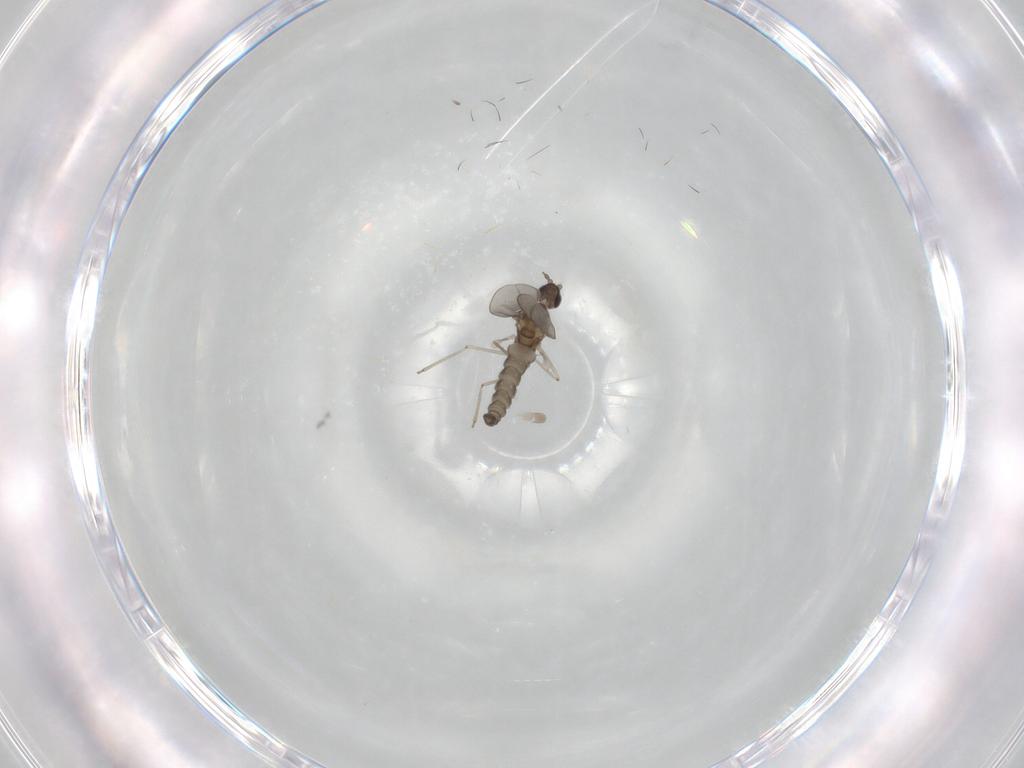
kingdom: Animalia
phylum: Arthropoda
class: Insecta
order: Diptera
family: Cecidomyiidae
